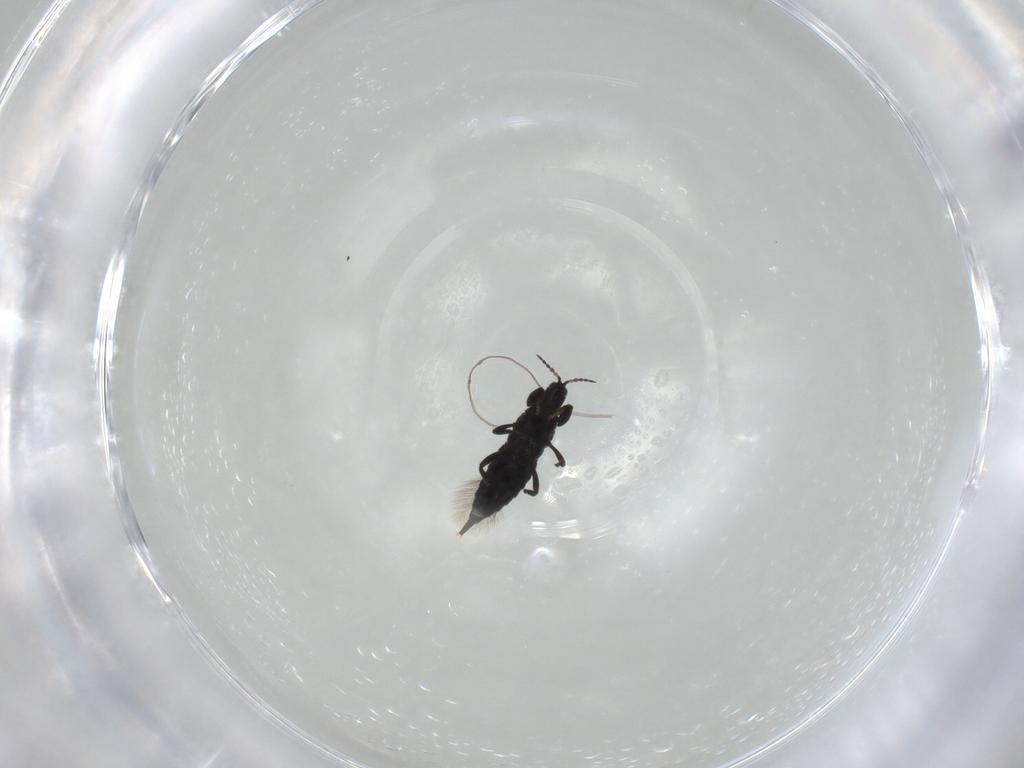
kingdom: Animalia
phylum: Arthropoda
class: Insecta
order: Thysanoptera
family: Phlaeothripidae
